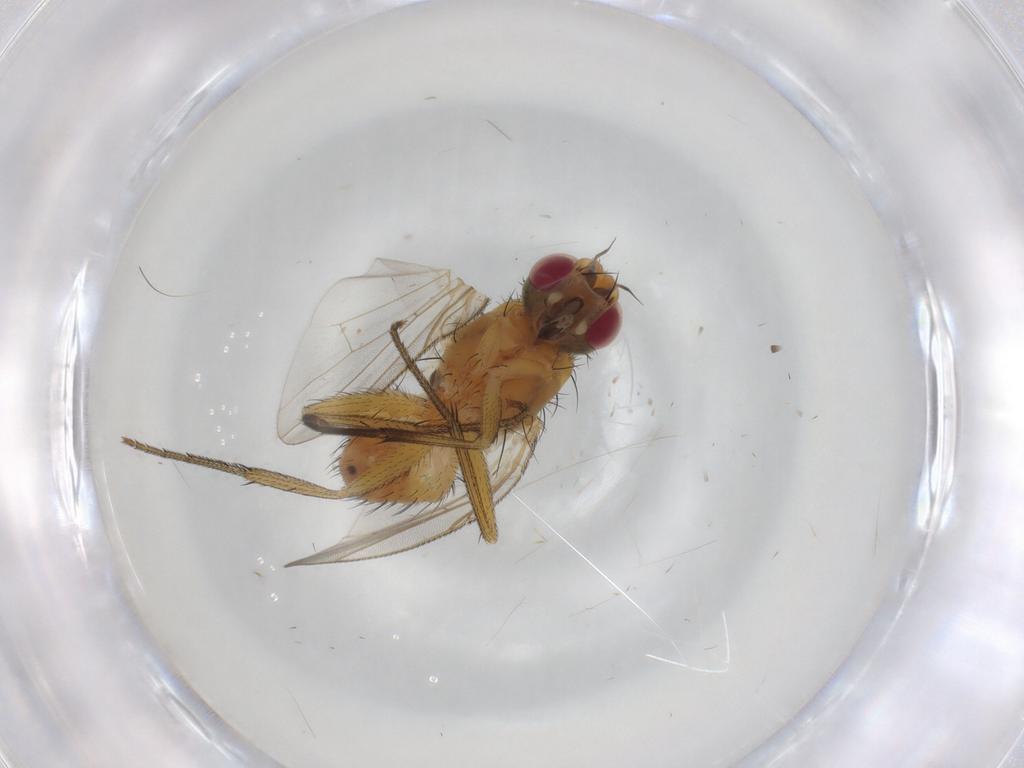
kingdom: Animalia
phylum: Arthropoda
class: Insecta
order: Diptera
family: Muscidae
